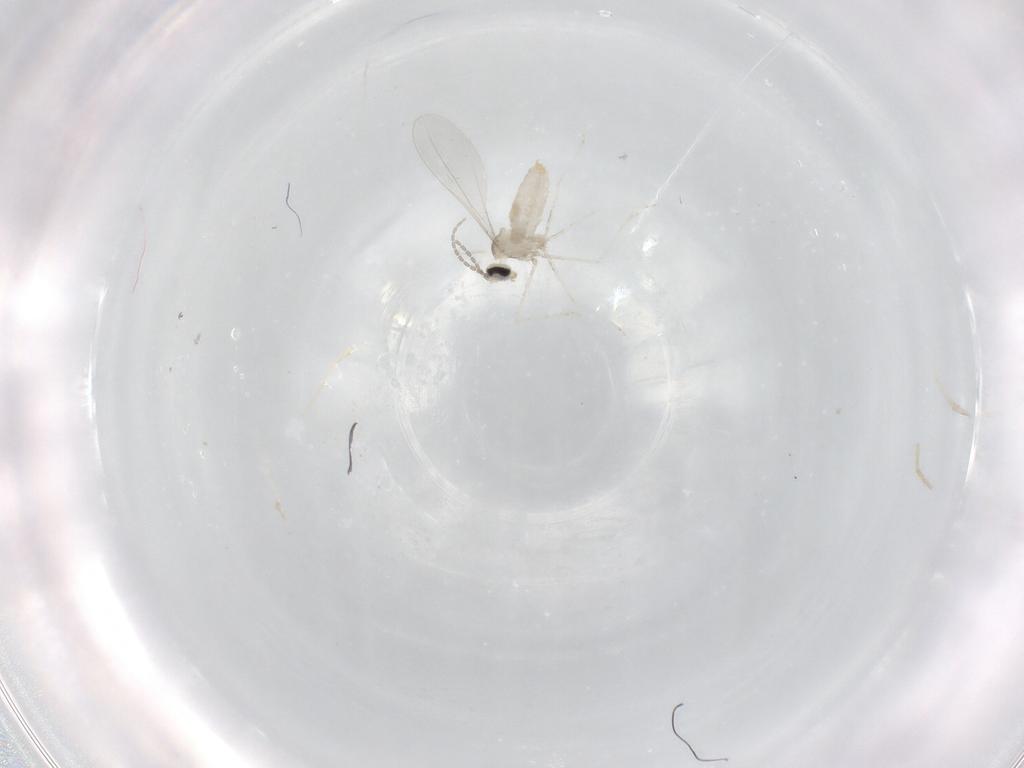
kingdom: Animalia
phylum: Arthropoda
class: Insecta
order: Diptera
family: Cecidomyiidae
